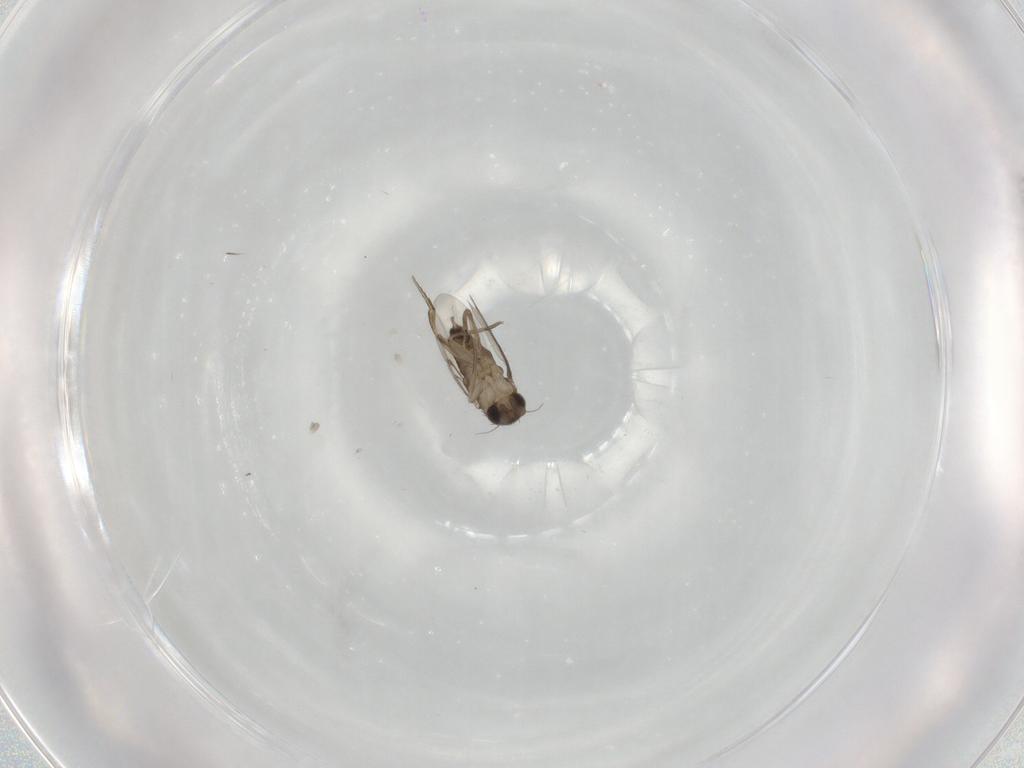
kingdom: Animalia
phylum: Arthropoda
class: Insecta
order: Diptera
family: Phoridae
